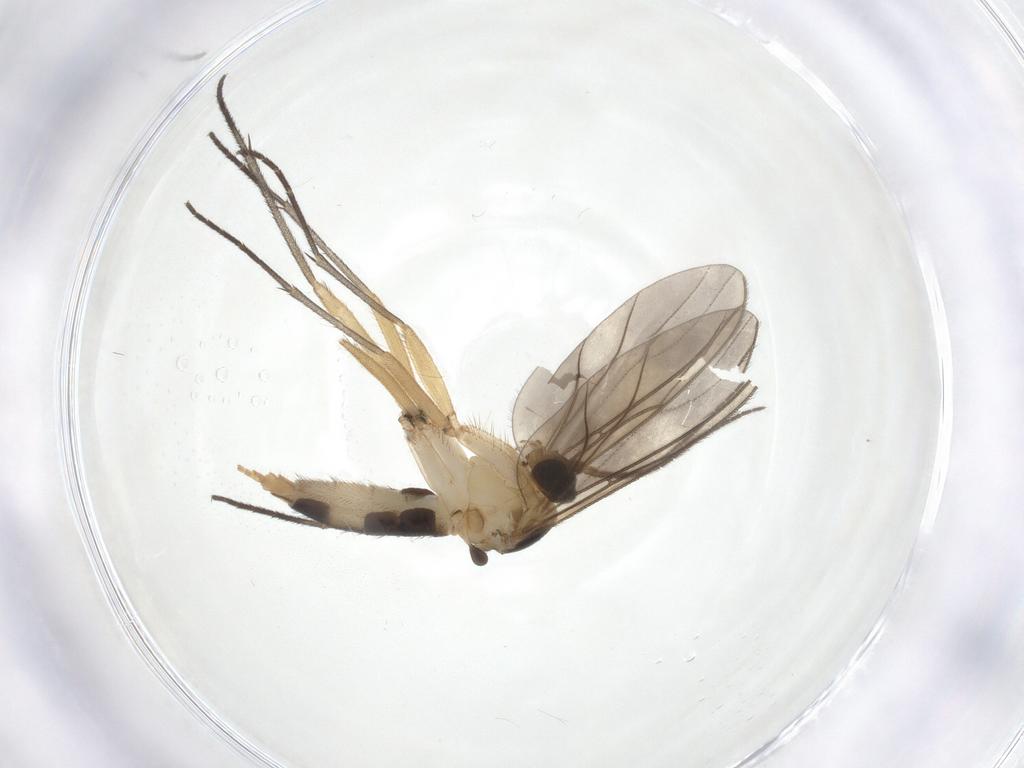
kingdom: Animalia
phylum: Arthropoda
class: Insecta
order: Diptera
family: Sciaridae
